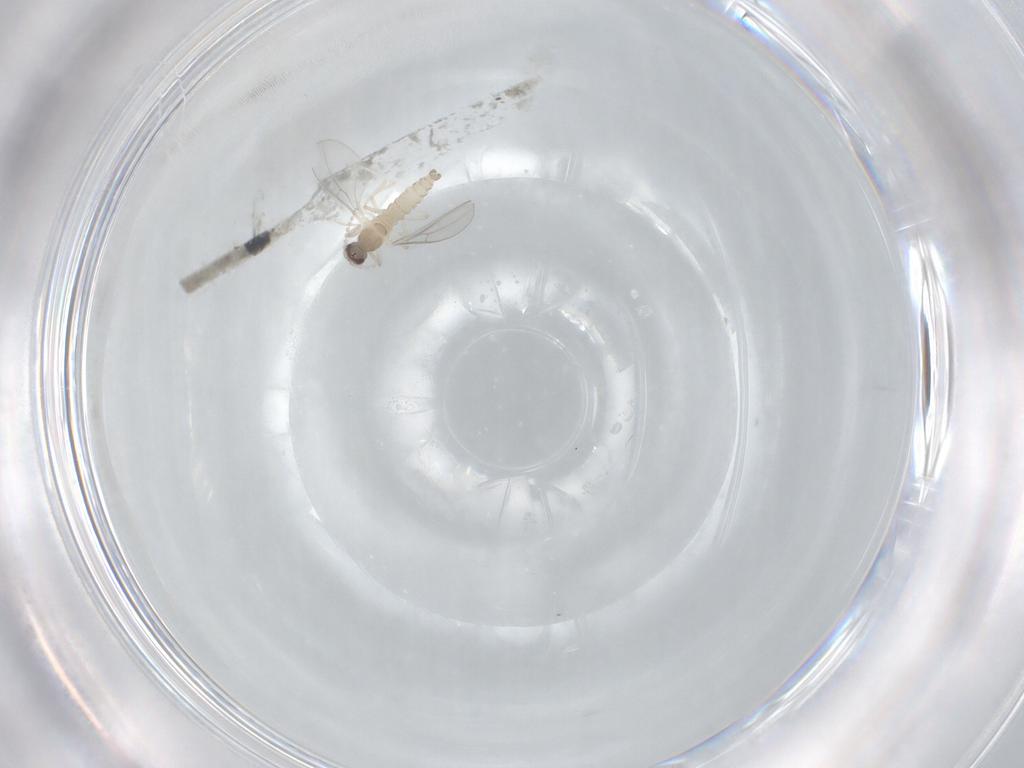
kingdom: Animalia
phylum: Arthropoda
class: Insecta
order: Diptera
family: Cecidomyiidae
